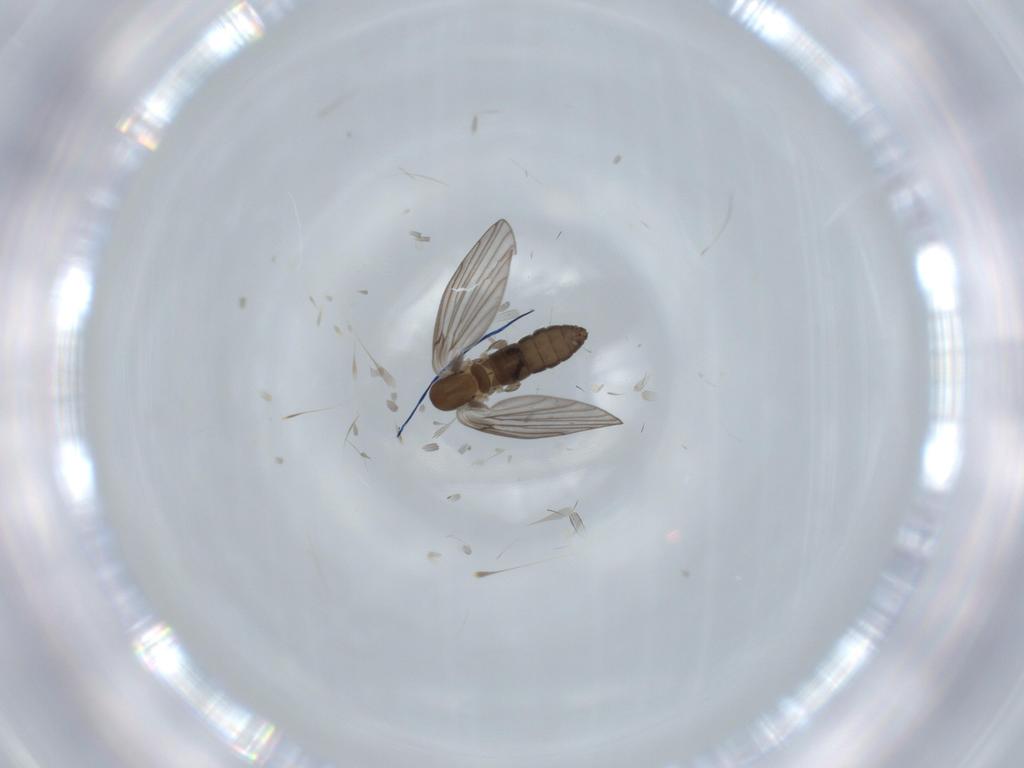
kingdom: Animalia
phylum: Arthropoda
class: Insecta
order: Diptera
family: Psychodidae
